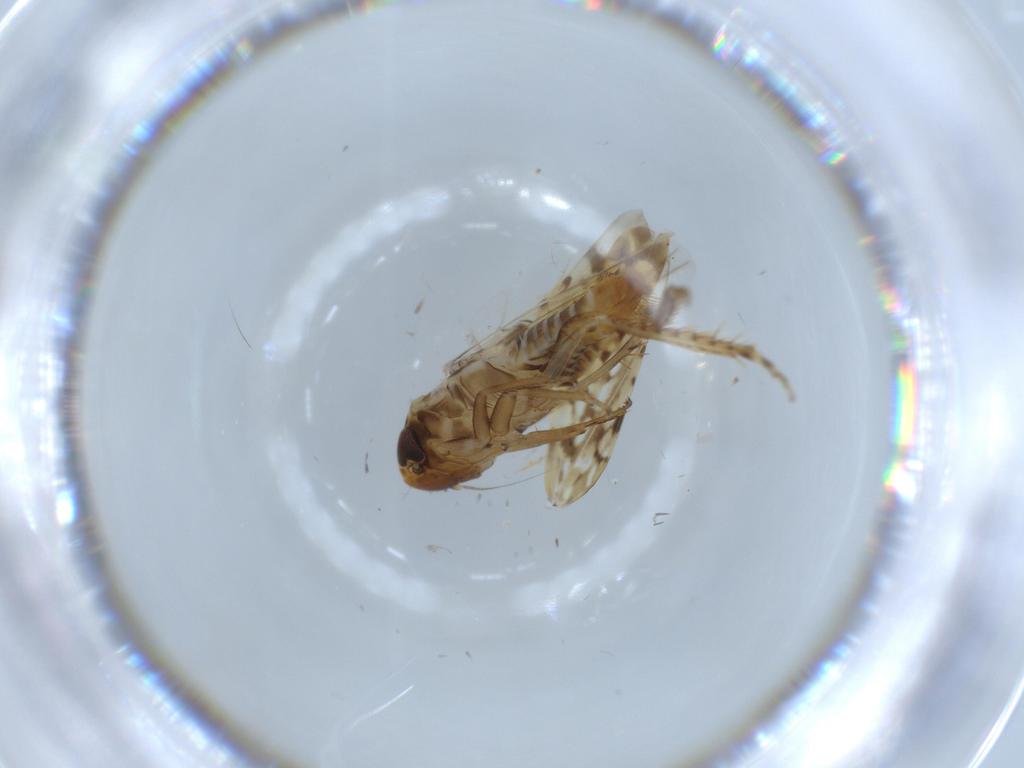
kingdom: Animalia
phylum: Arthropoda
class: Insecta
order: Hemiptera
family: Cicadellidae
